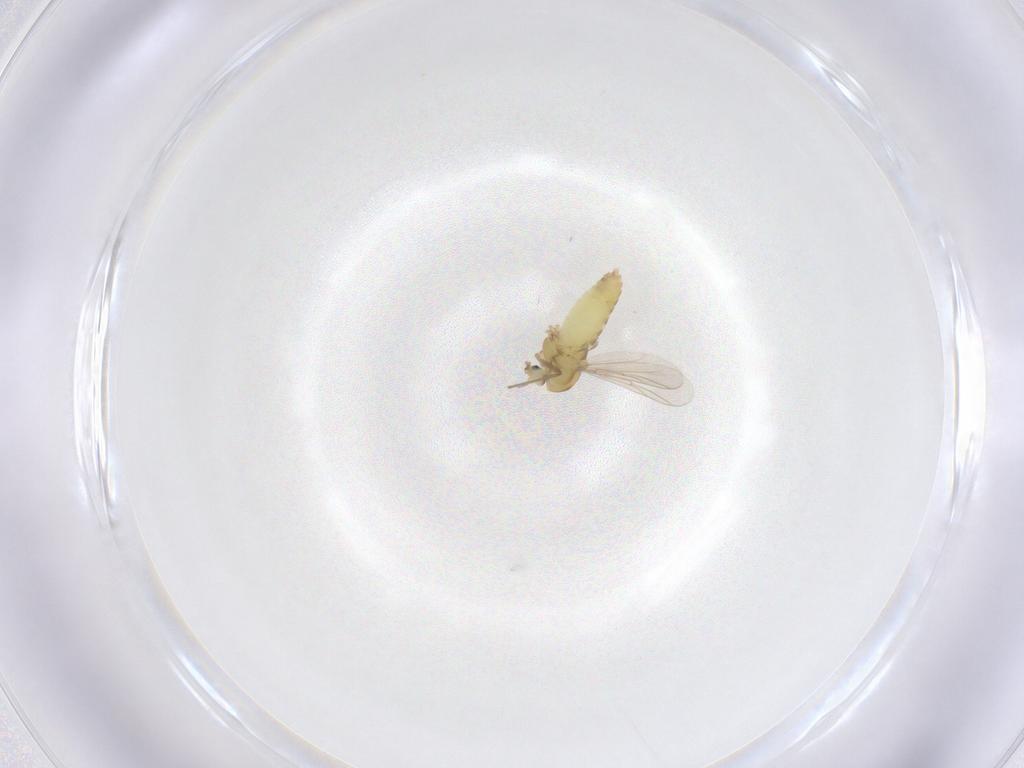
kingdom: Animalia
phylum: Arthropoda
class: Insecta
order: Diptera
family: Chironomidae
